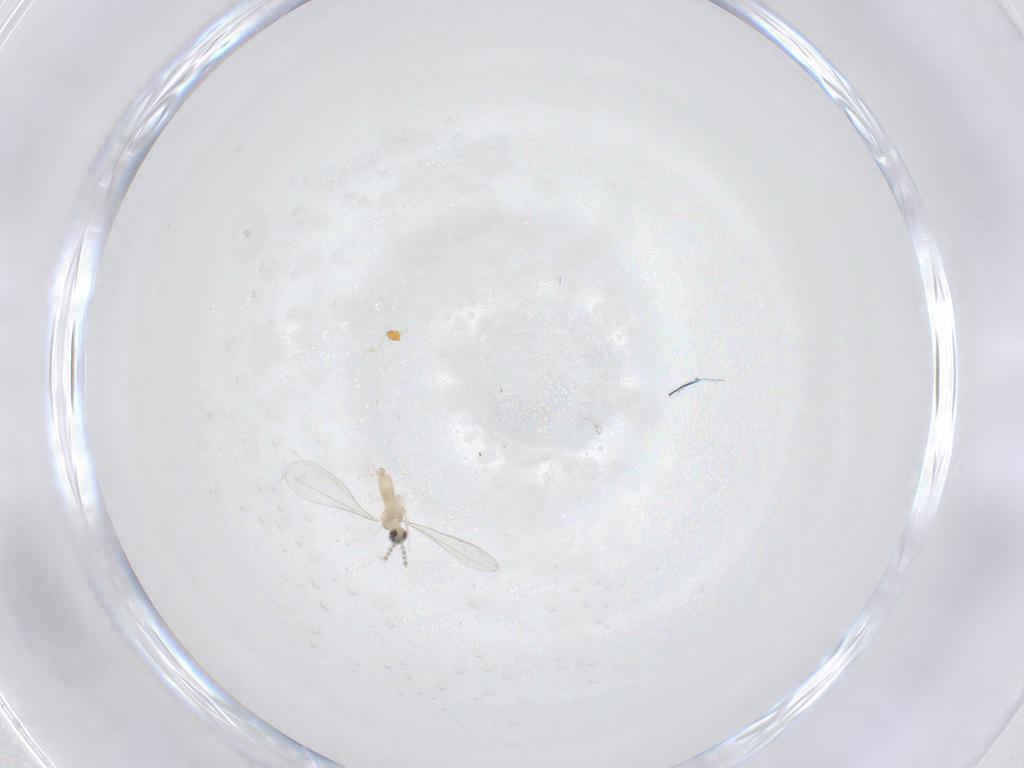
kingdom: Animalia
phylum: Arthropoda
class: Insecta
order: Diptera
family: Cecidomyiidae
